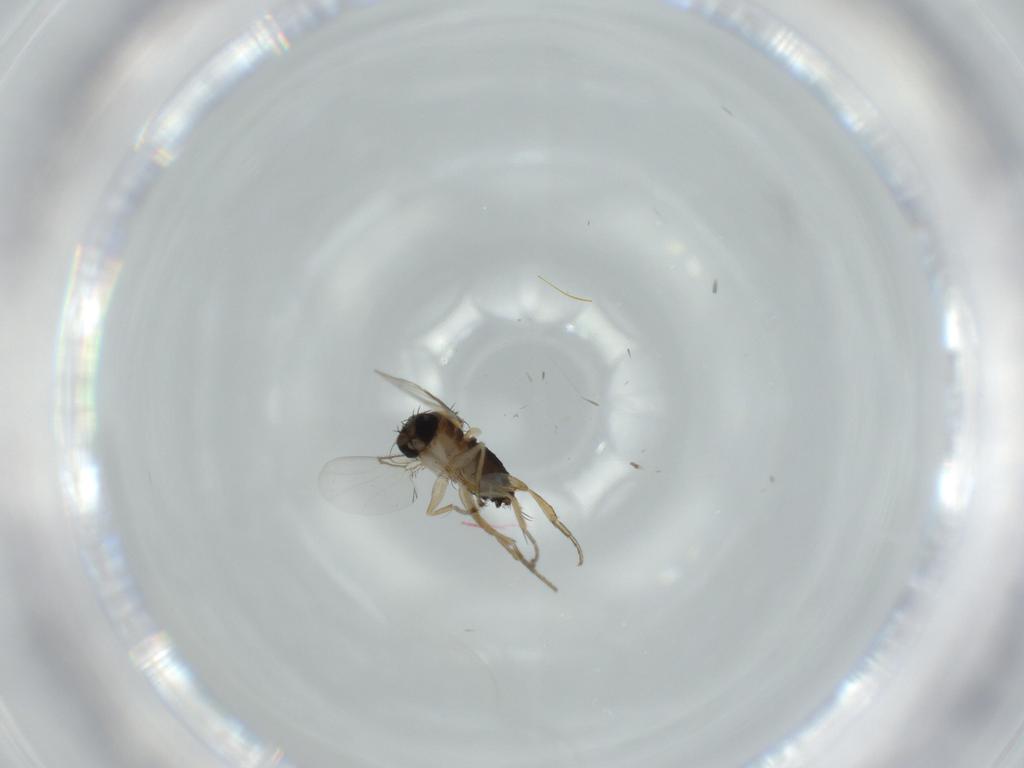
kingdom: Animalia
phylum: Arthropoda
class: Insecta
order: Diptera
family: Phoridae
